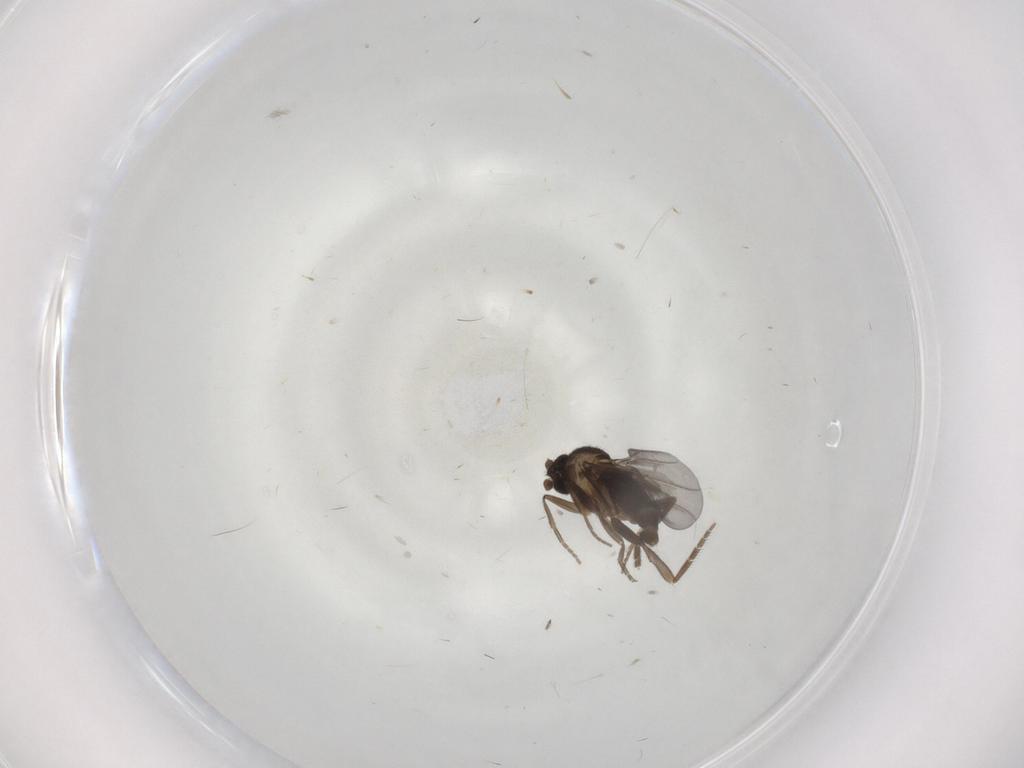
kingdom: Animalia
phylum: Arthropoda
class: Insecta
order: Diptera
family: Phoridae
